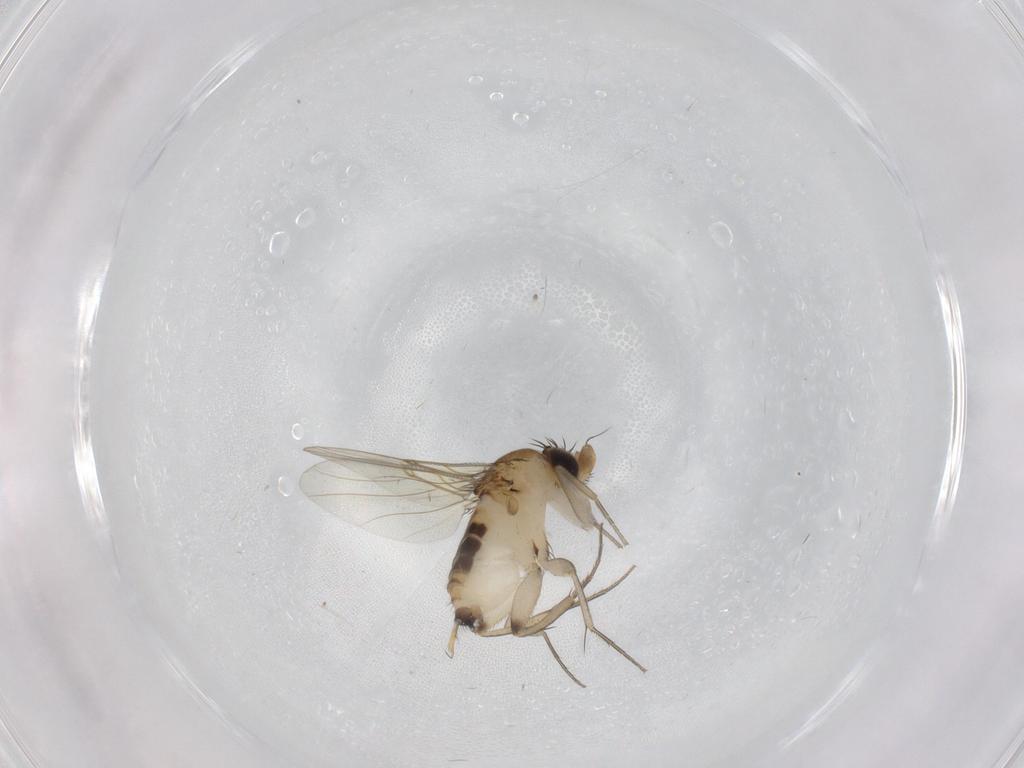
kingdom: Animalia
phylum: Arthropoda
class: Insecta
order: Diptera
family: Phoridae
